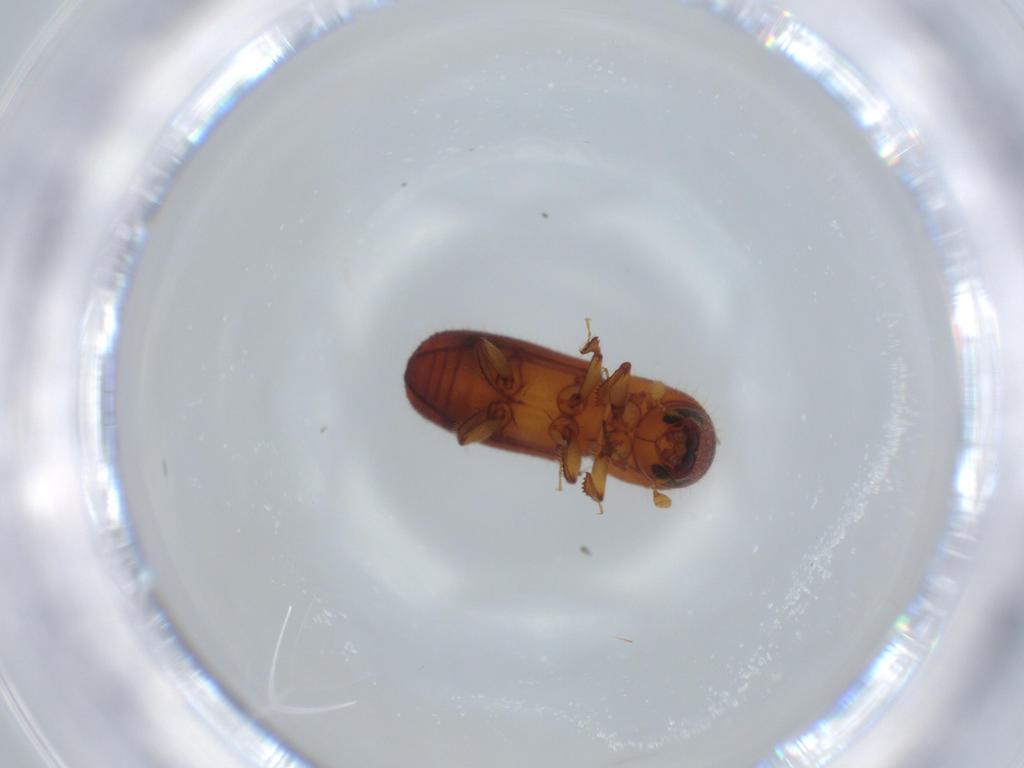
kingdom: Animalia
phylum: Arthropoda
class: Insecta
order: Coleoptera
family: Curculionidae
